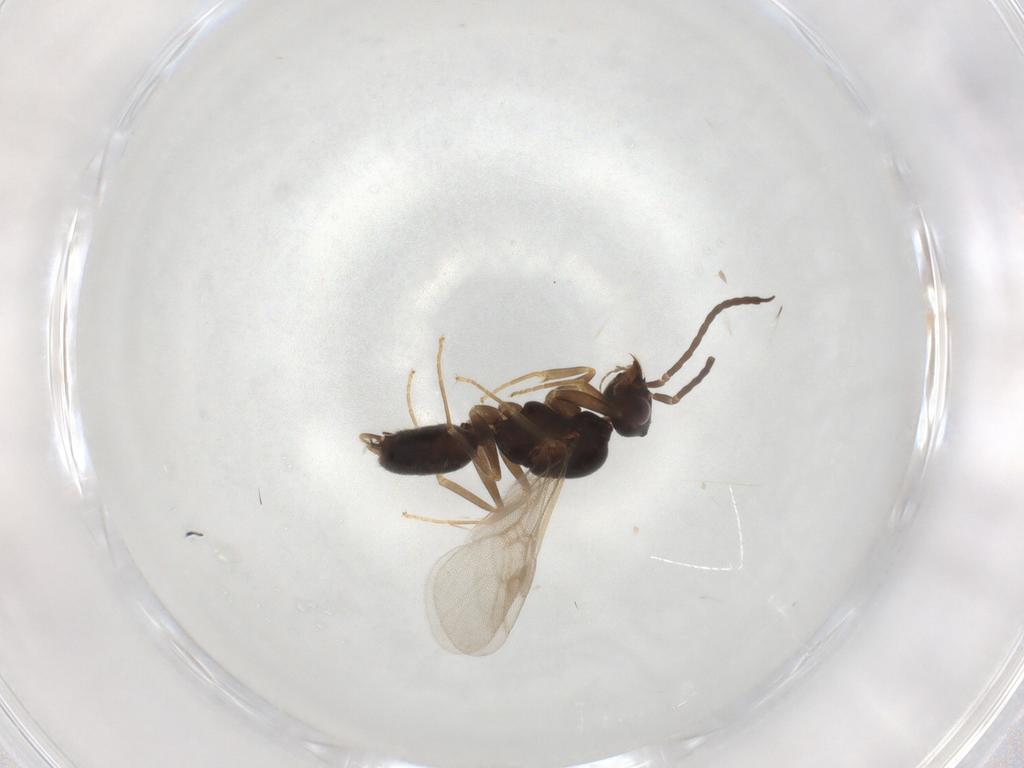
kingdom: Animalia
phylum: Arthropoda
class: Insecta
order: Hymenoptera
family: Formicidae
